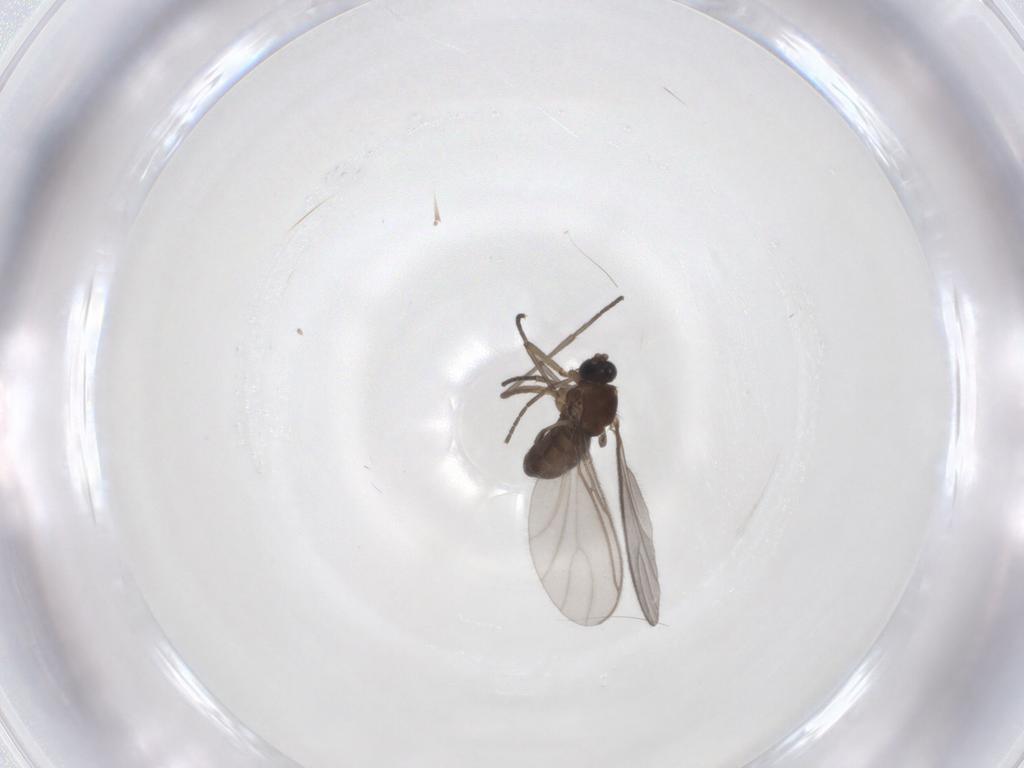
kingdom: Animalia
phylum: Arthropoda
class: Insecta
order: Diptera
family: Sciaridae
